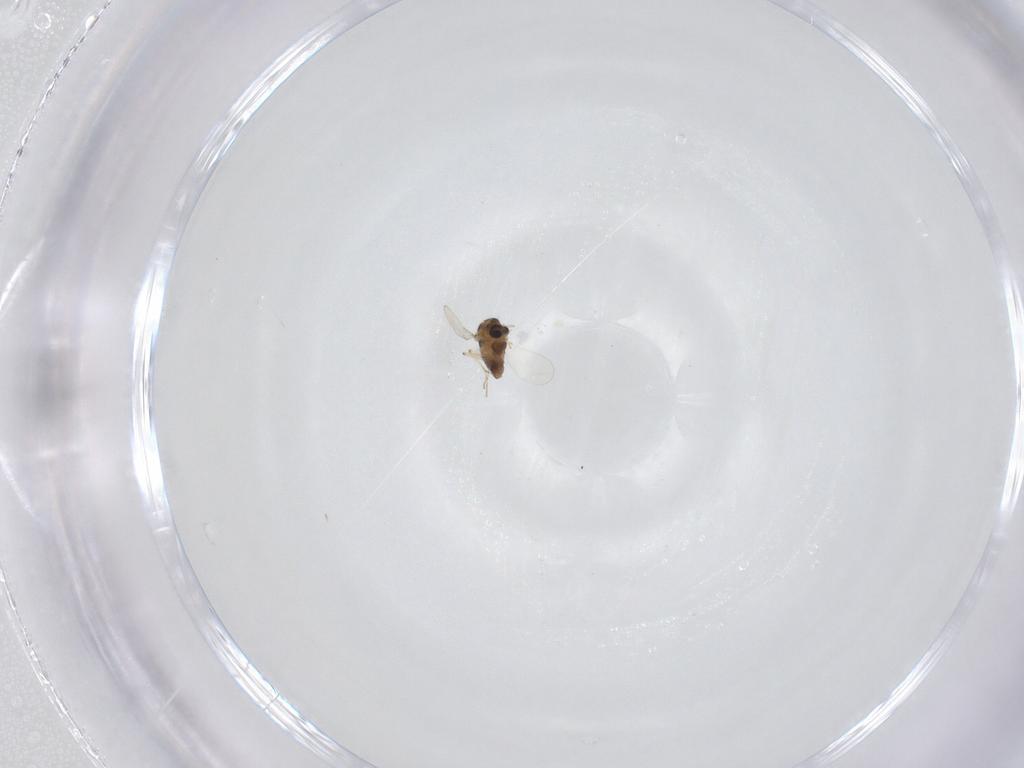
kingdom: Animalia
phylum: Arthropoda
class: Insecta
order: Diptera
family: Chironomidae
